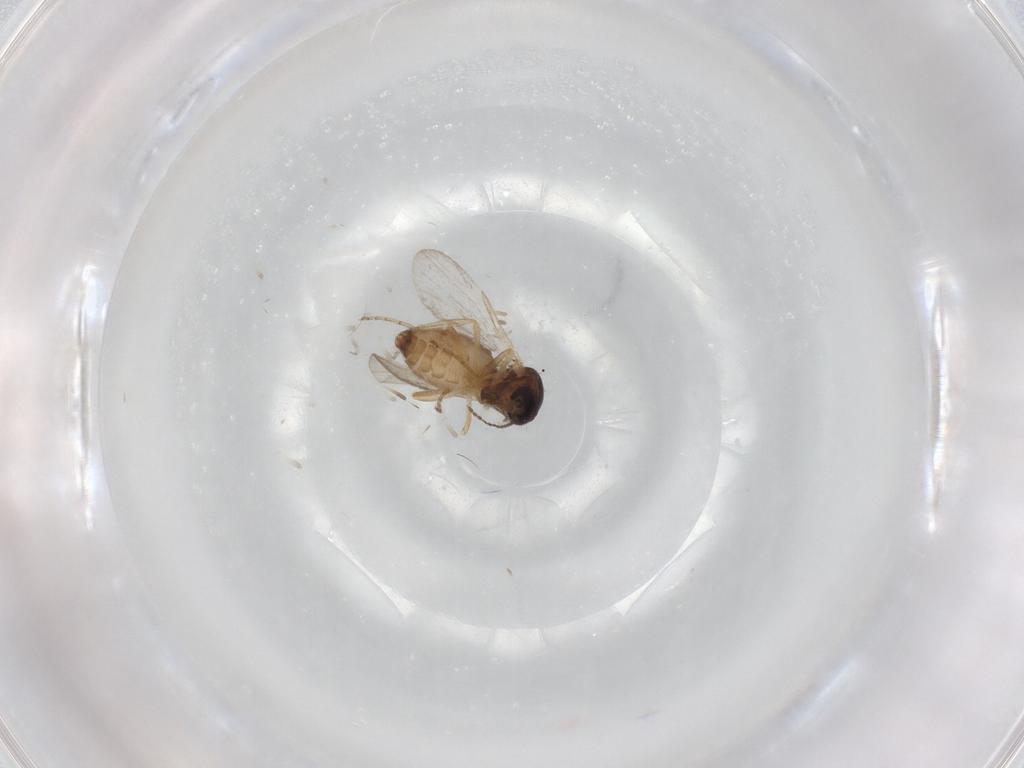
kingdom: Animalia
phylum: Arthropoda
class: Insecta
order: Diptera
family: Ceratopogonidae
